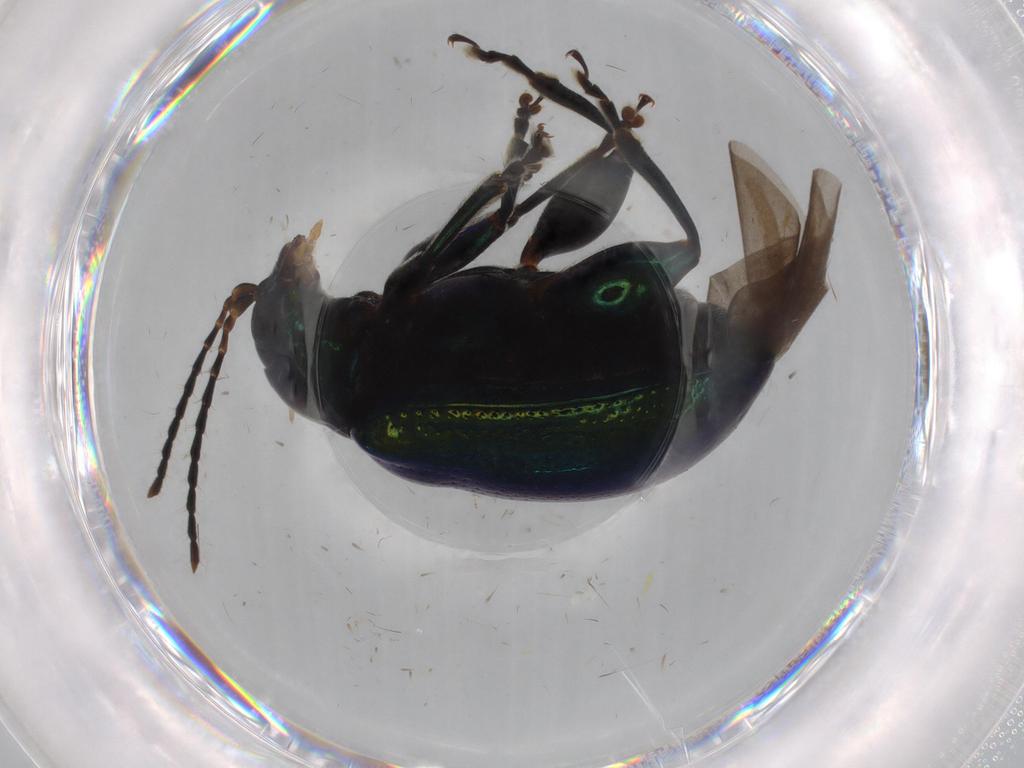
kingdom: Animalia
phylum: Arthropoda
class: Insecta
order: Coleoptera
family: Chrysomelidae
